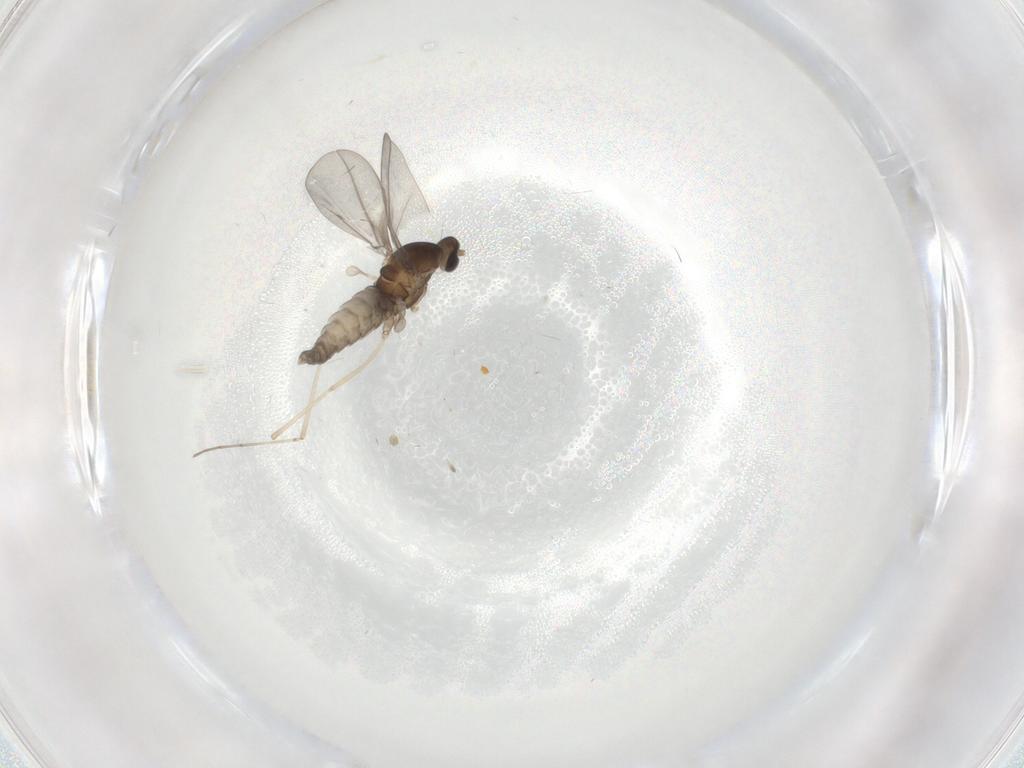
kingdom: Animalia
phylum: Arthropoda
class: Insecta
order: Diptera
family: Cecidomyiidae
